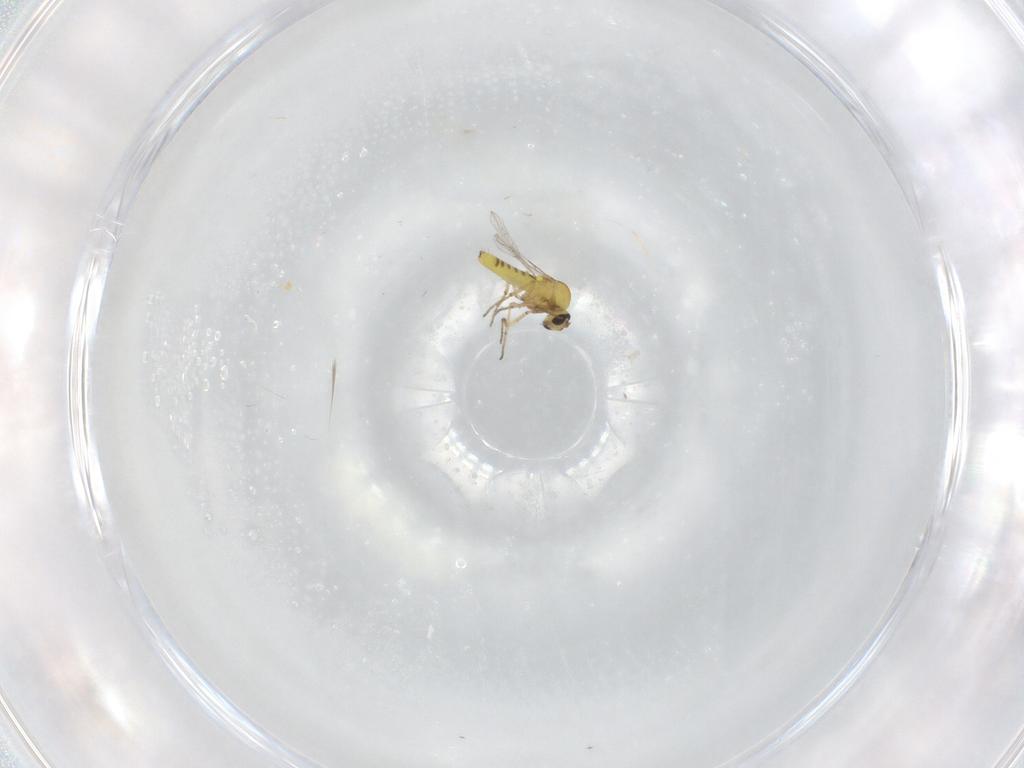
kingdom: Animalia
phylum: Arthropoda
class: Insecta
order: Diptera
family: Ceratopogonidae
